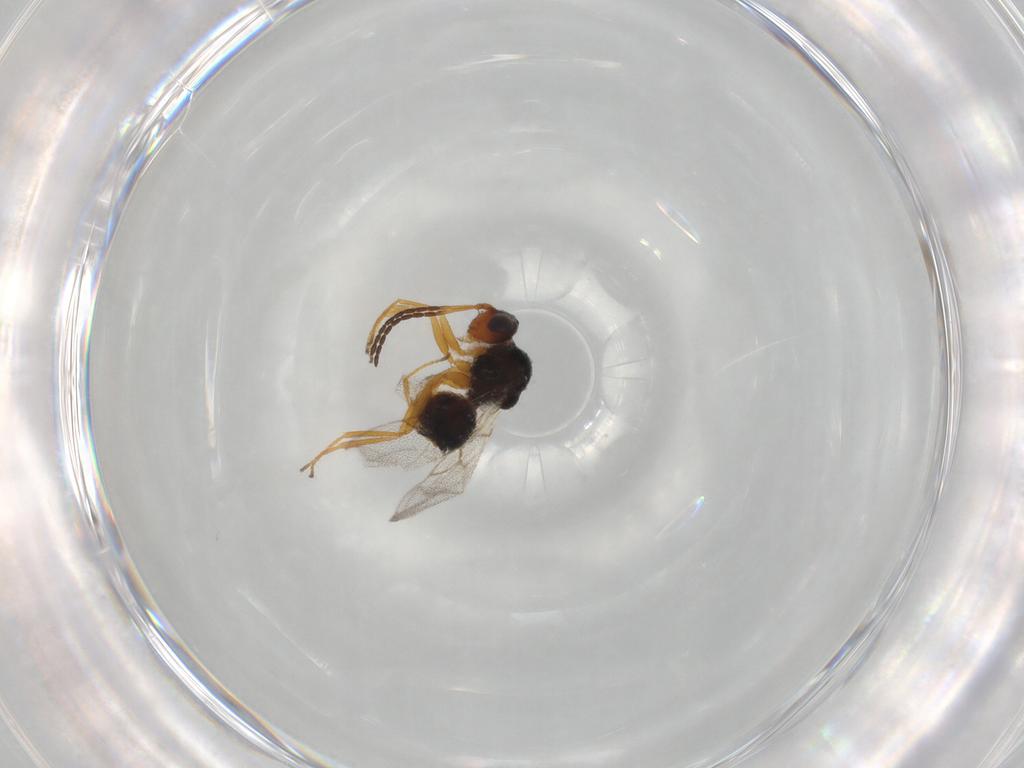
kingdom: Animalia
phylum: Arthropoda
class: Insecta
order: Hymenoptera
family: Figitidae
